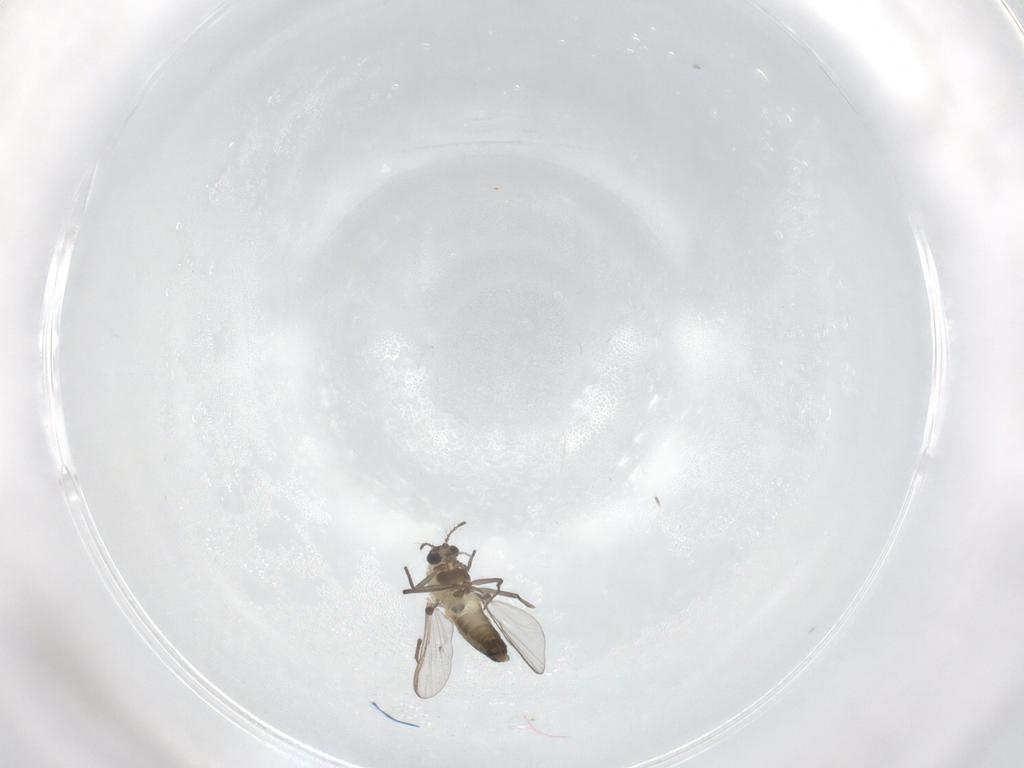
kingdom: Animalia
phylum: Arthropoda
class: Insecta
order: Diptera
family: Chironomidae
